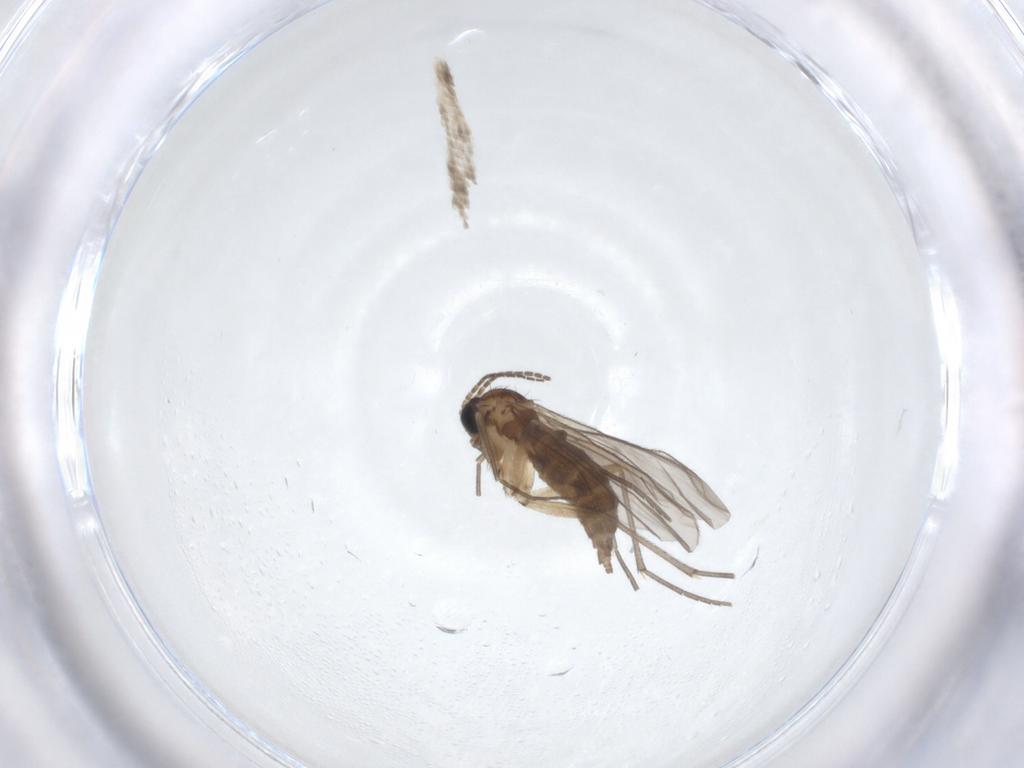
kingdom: Animalia
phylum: Arthropoda
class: Insecta
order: Diptera
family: Sciaridae
